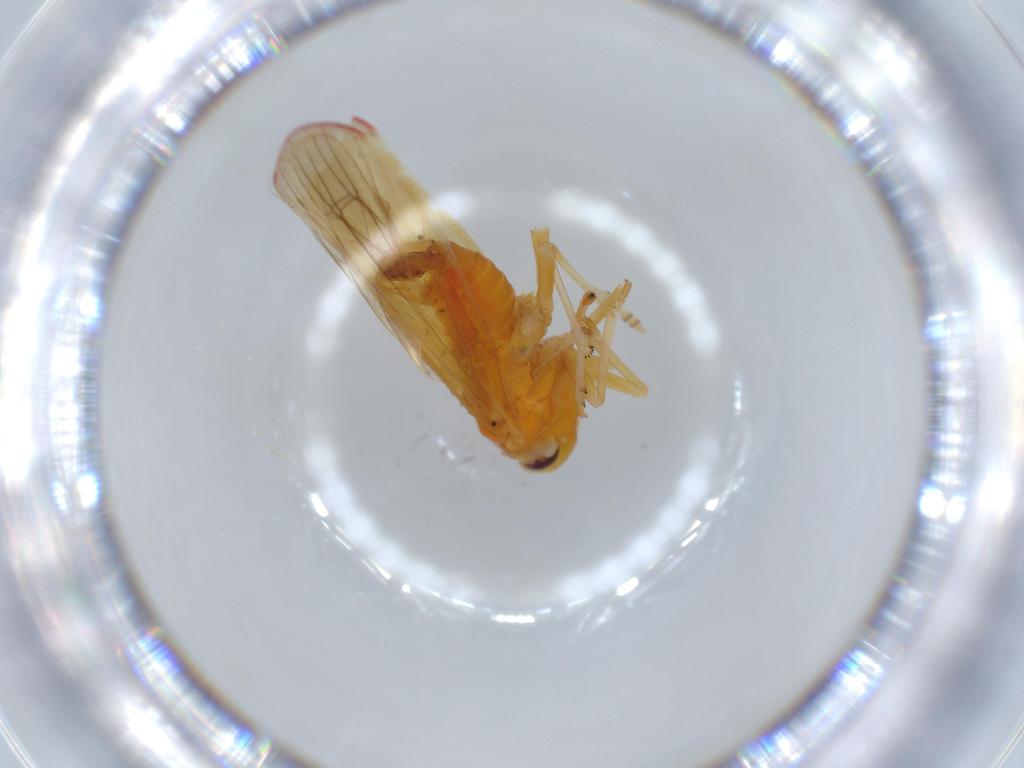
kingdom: Animalia
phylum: Arthropoda
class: Insecta
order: Hemiptera
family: Derbidae
